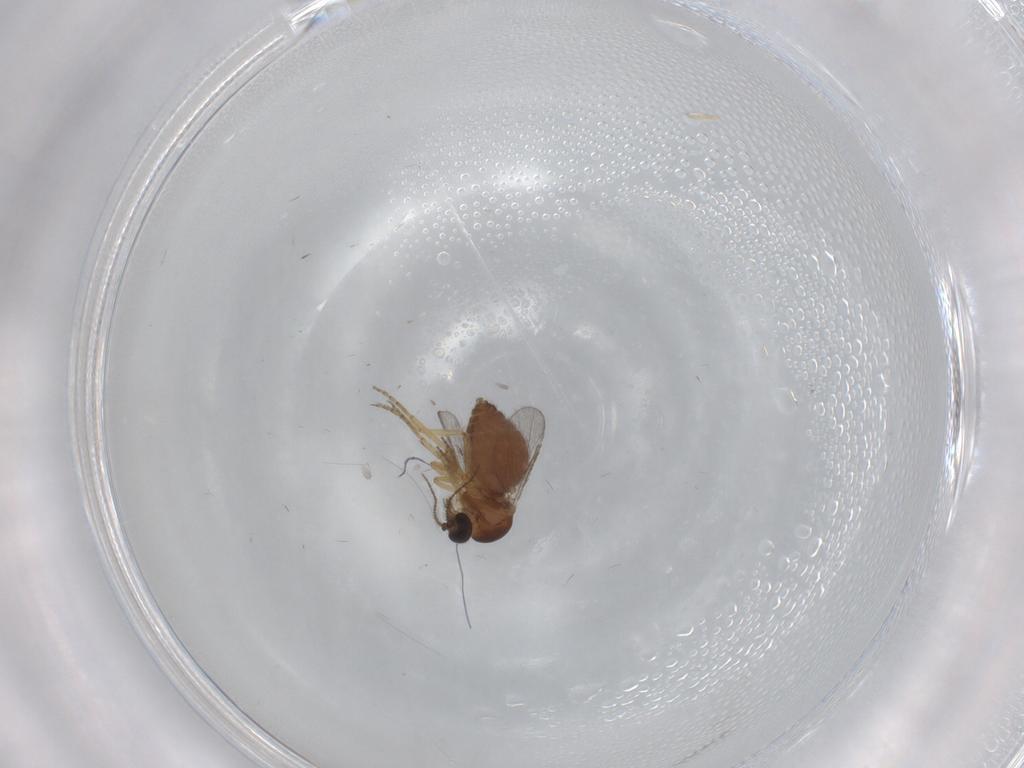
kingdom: Animalia
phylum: Arthropoda
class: Insecta
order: Diptera
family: Ceratopogonidae
